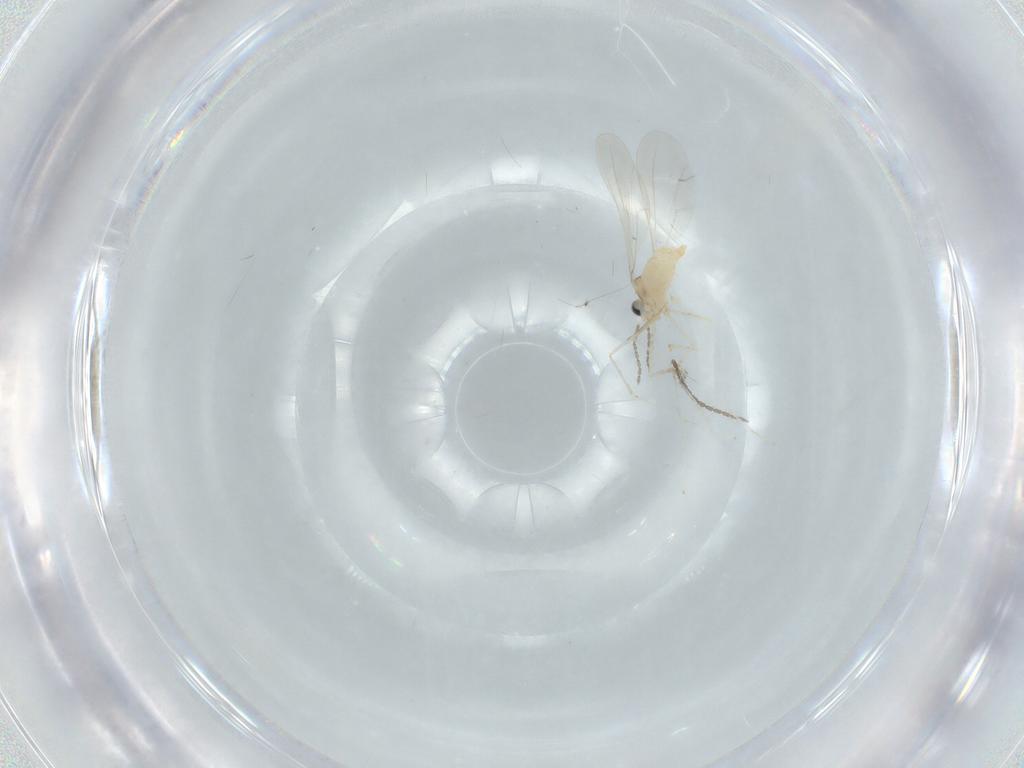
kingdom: Animalia
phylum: Arthropoda
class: Insecta
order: Diptera
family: Cecidomyiidae
